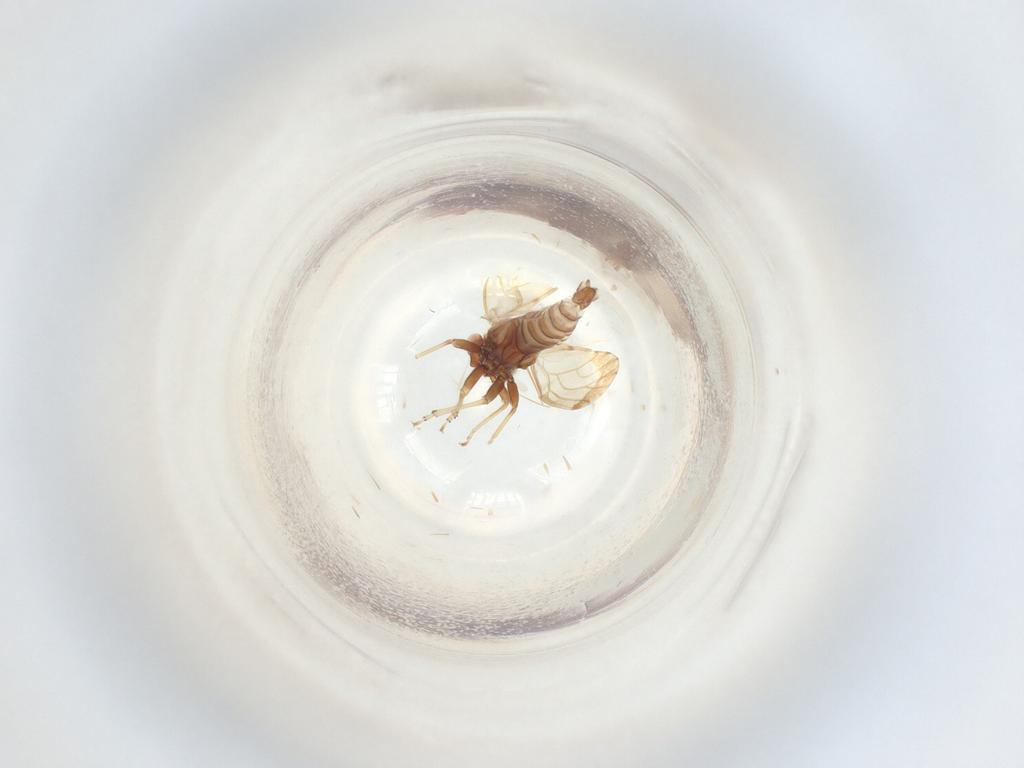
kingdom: Animalia
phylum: Arthropoda
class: Insecta
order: Hemiptera
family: Psyllidae
